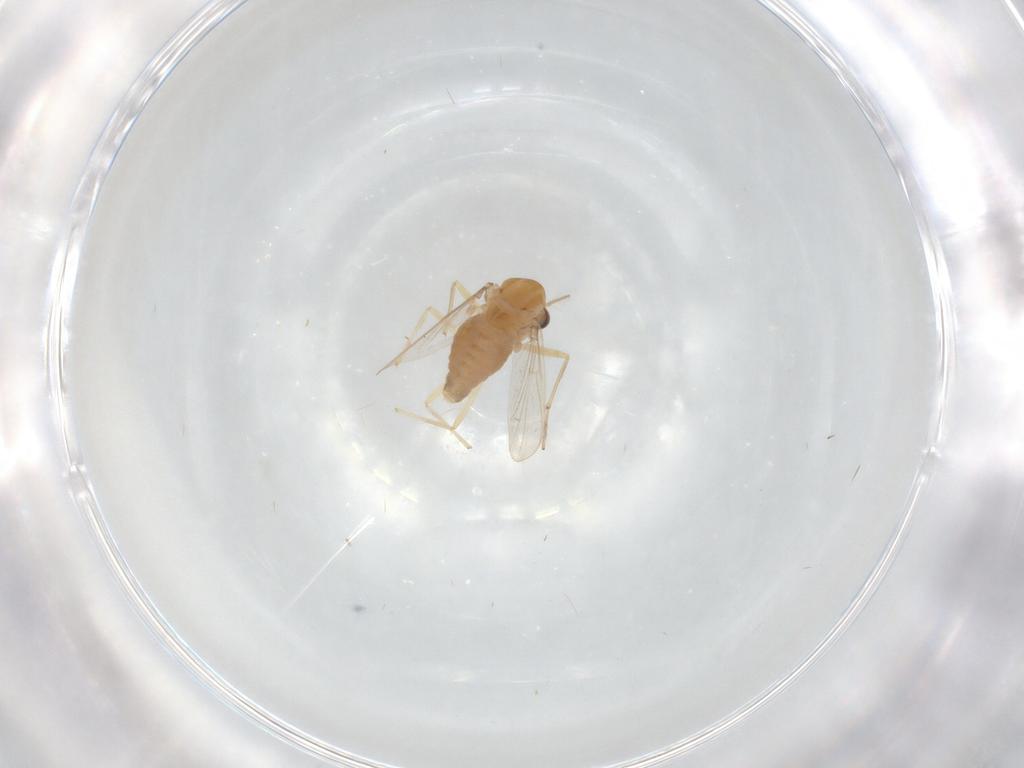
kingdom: Animalia
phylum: Arthropoda
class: Insecta
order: Diptera
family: Chironomidae
